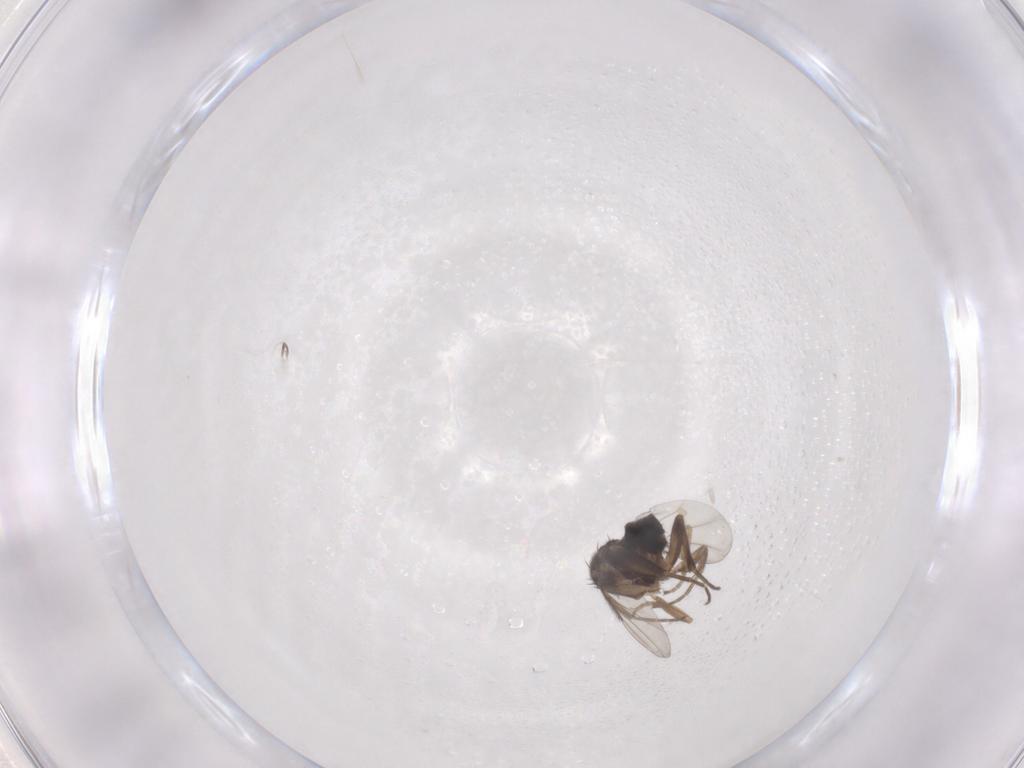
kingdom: Animalia
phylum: Arthropoda
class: Insecta
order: Diptera
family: Phoridae
